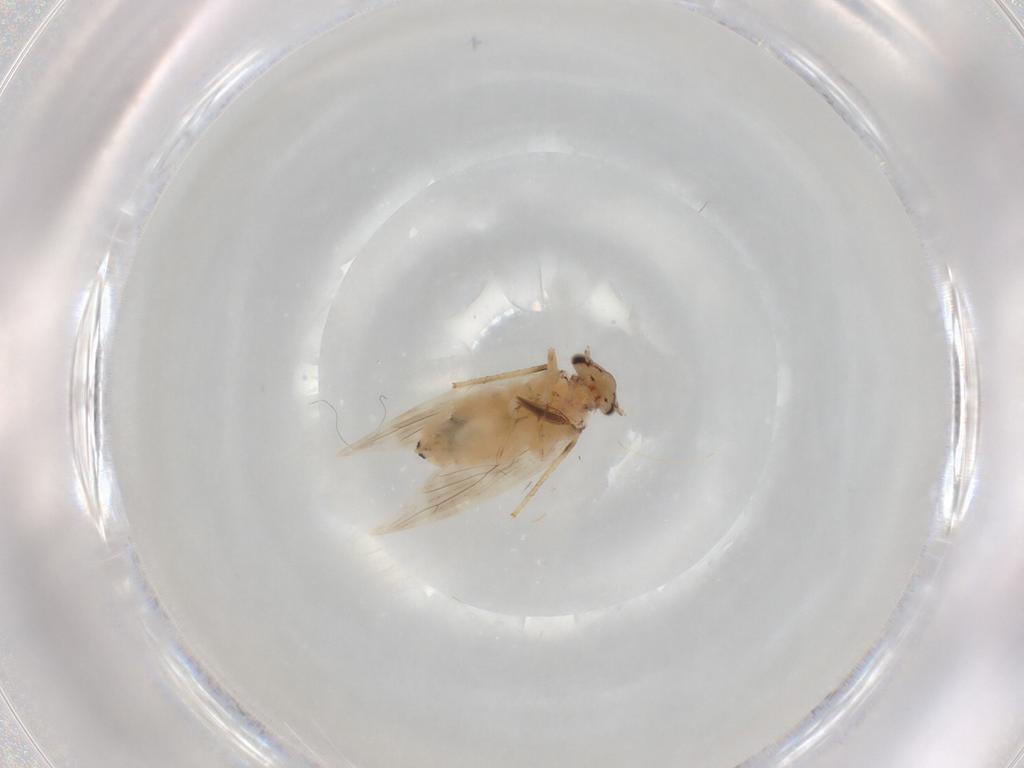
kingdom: Animalia
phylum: Arthropoda
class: Insecta
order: Psocodea
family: Lepidopsocidae
